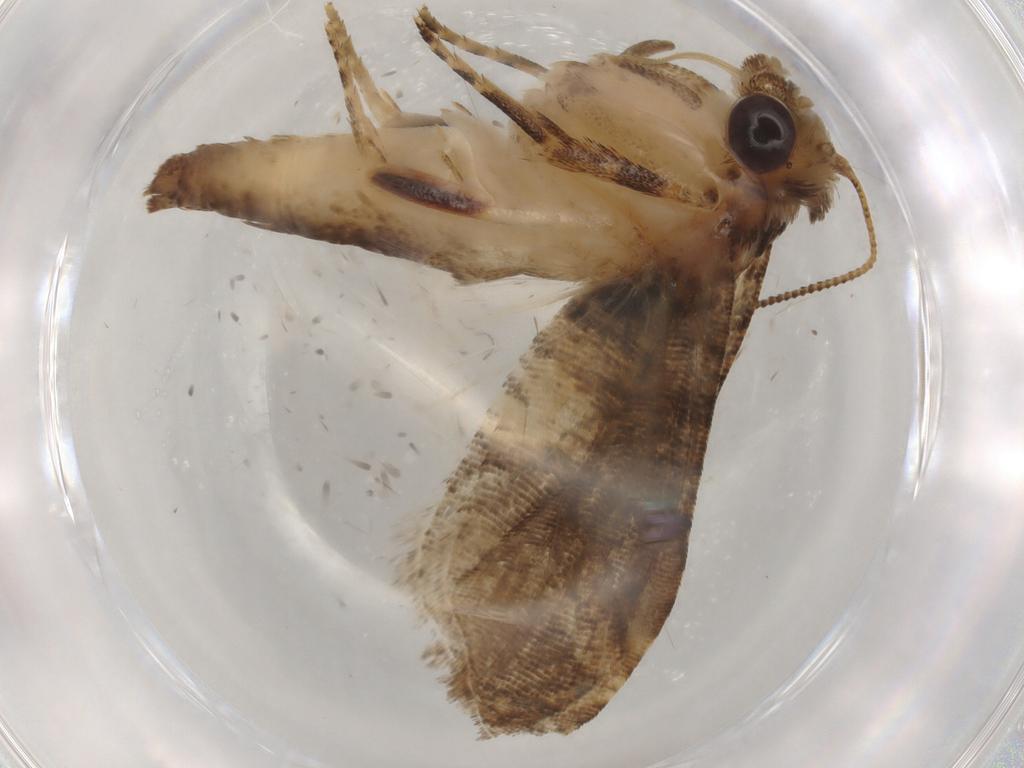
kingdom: Animalia
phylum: Arthropoda
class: Insecta
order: Lepidoptera
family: Tortricidae
